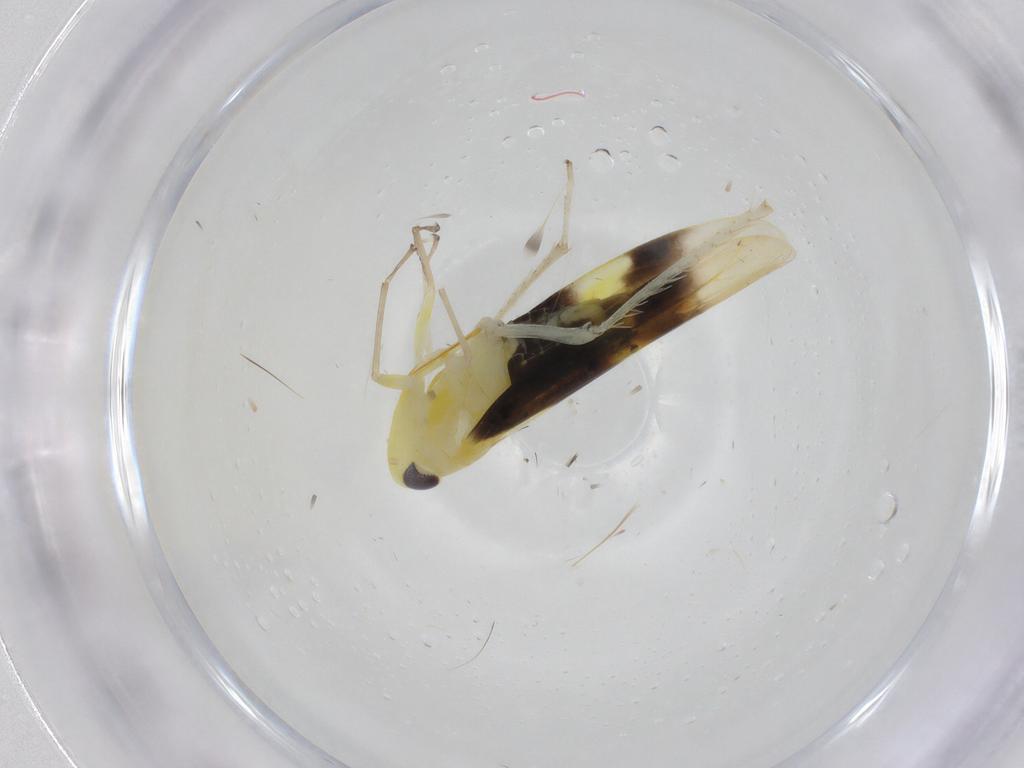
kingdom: Animalia
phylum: Arthropoda
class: Insecta
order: Hemiptera
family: Cicadellidae
